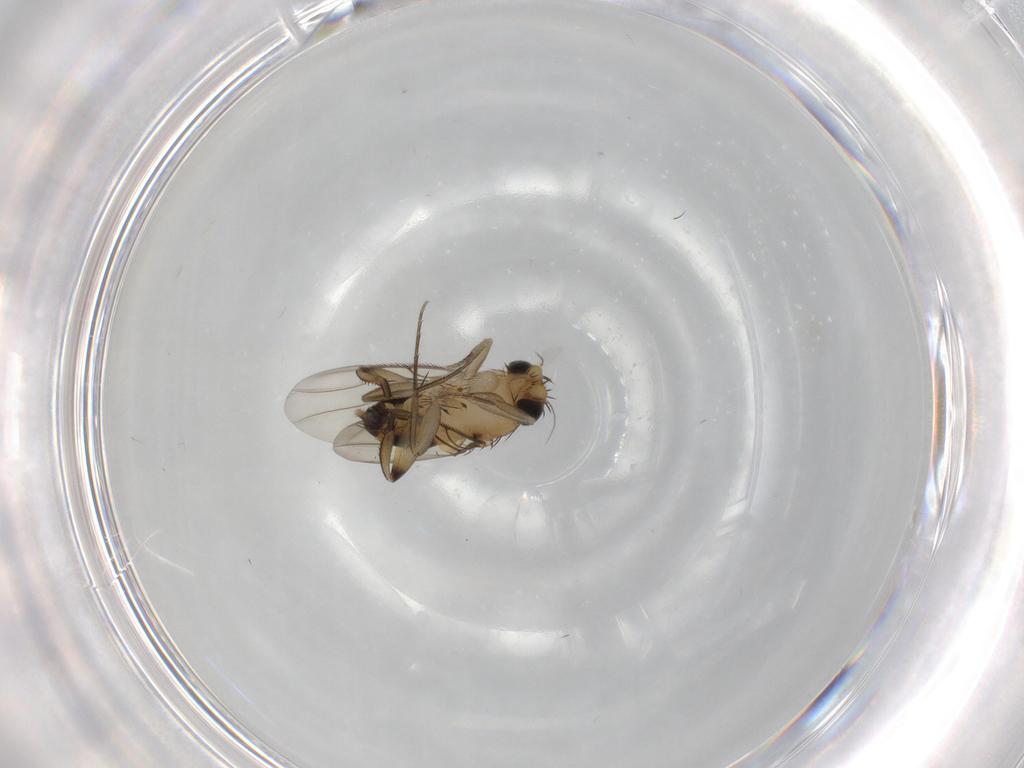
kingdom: Animalia
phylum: Arthropoda
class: Insecta
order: Diptera
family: Phoridae
